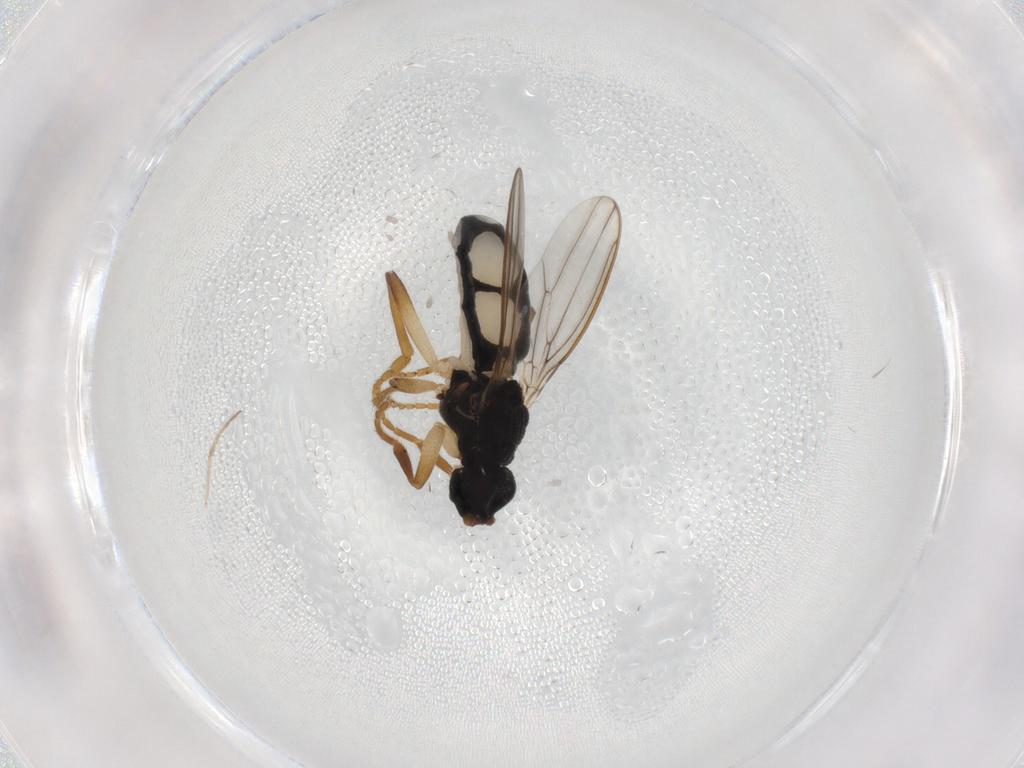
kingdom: Animalia
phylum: Arthropoda
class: Insecta
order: Diptera
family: Sphaeroceridae
